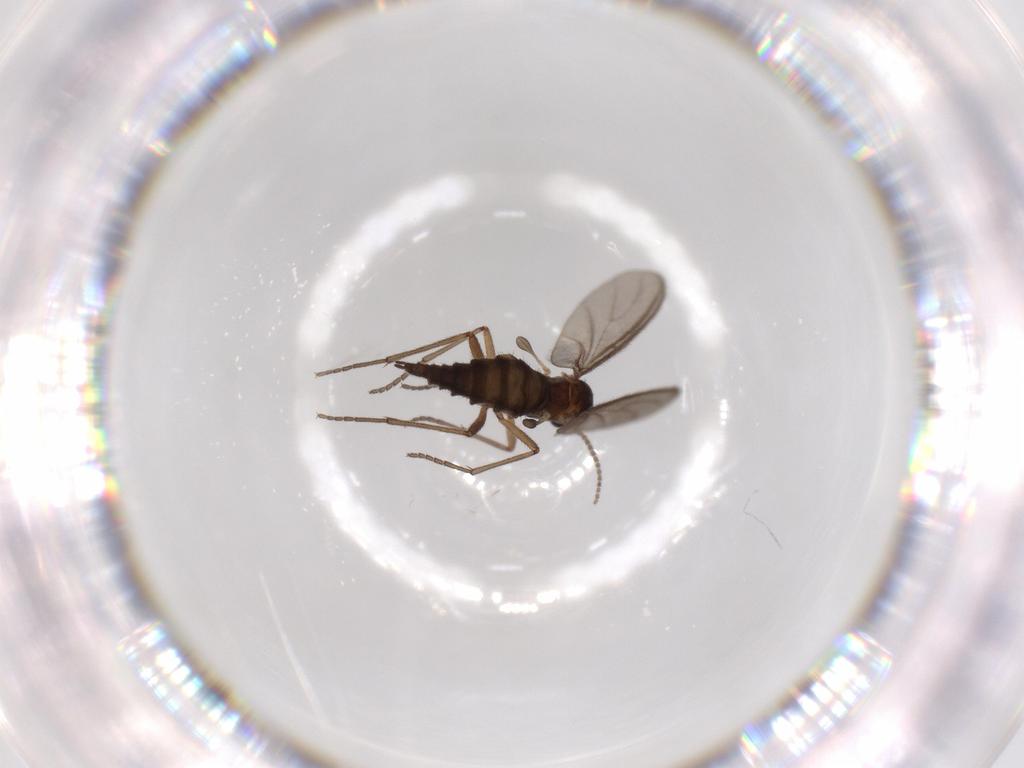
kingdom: Animalia
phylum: Arthropoda
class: Insecta
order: Diptera
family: Sciaridae
